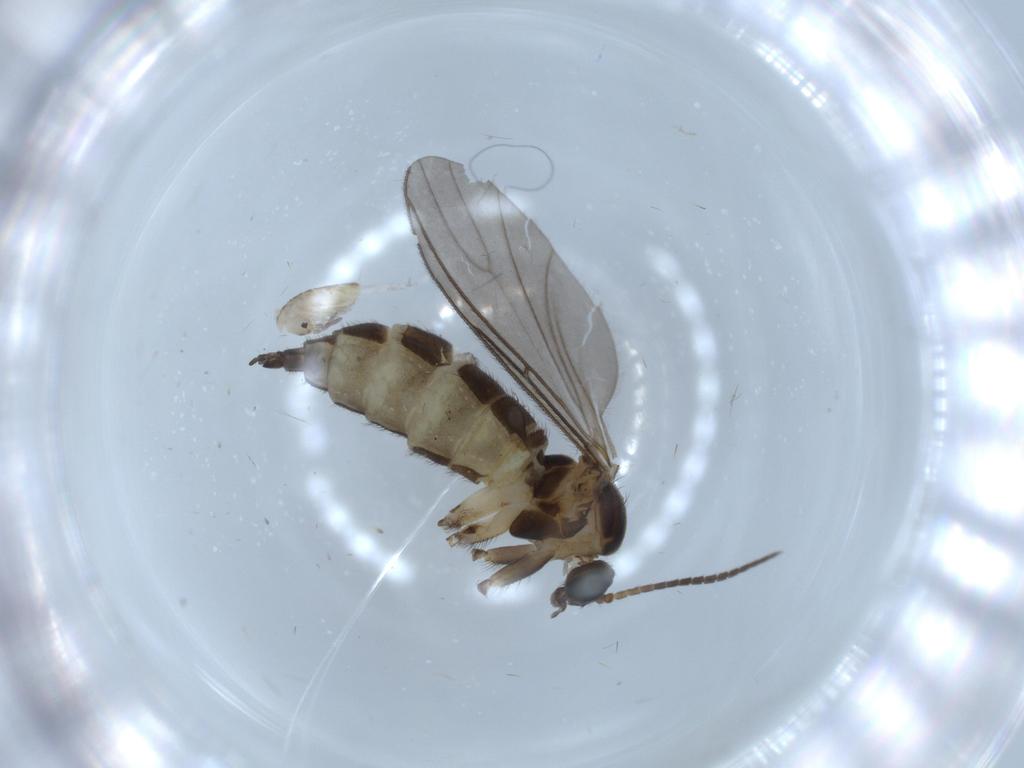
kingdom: Animalia
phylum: Arthropoda
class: Insecta
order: Diptera
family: Sciaridae
